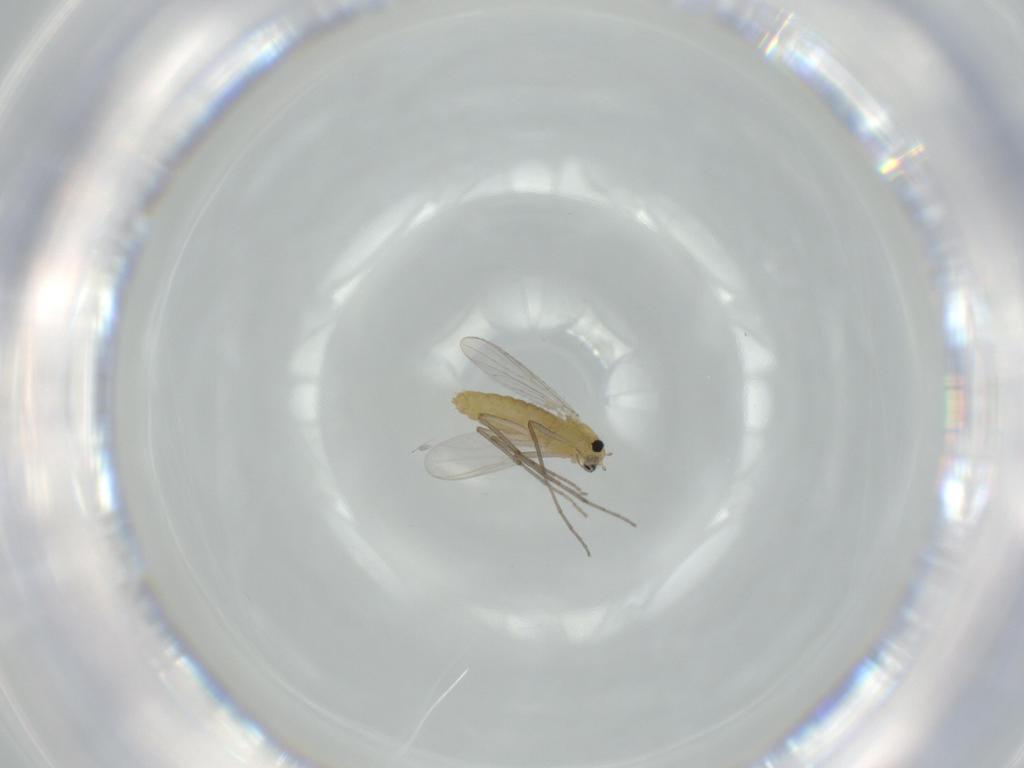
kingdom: Animalia
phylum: Arthropoda
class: Insecta
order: Diptera
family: Chironomidae
